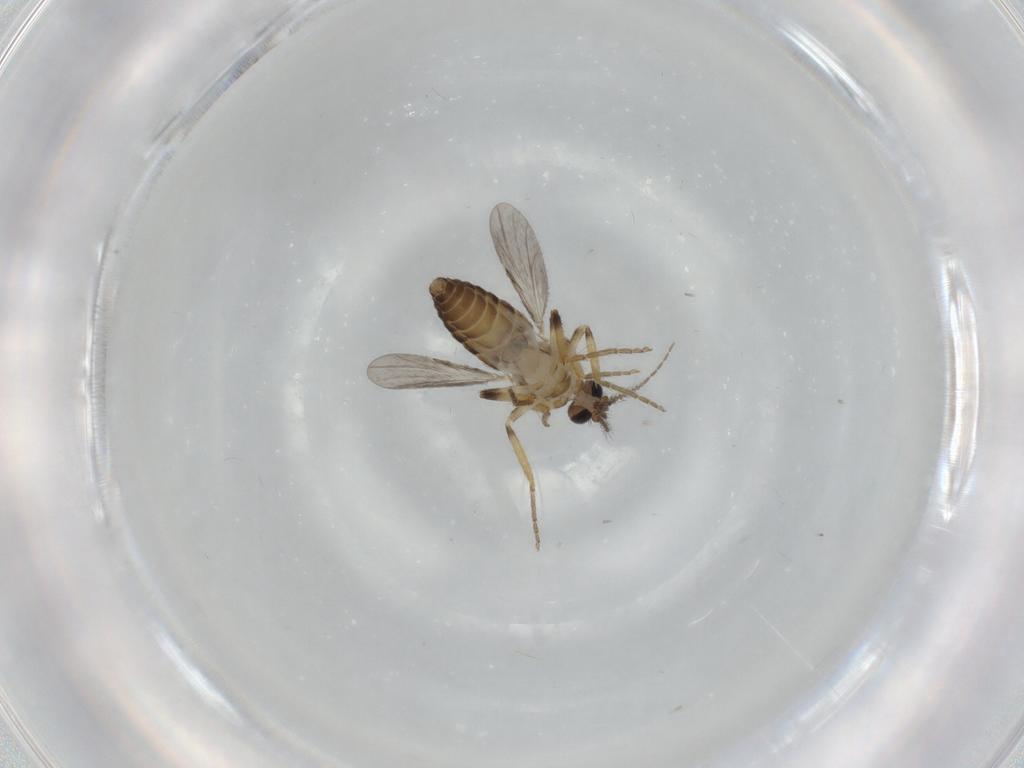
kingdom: Animalia
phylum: Arthropoda
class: Insecta
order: Diptera
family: Ceratopogonidae
